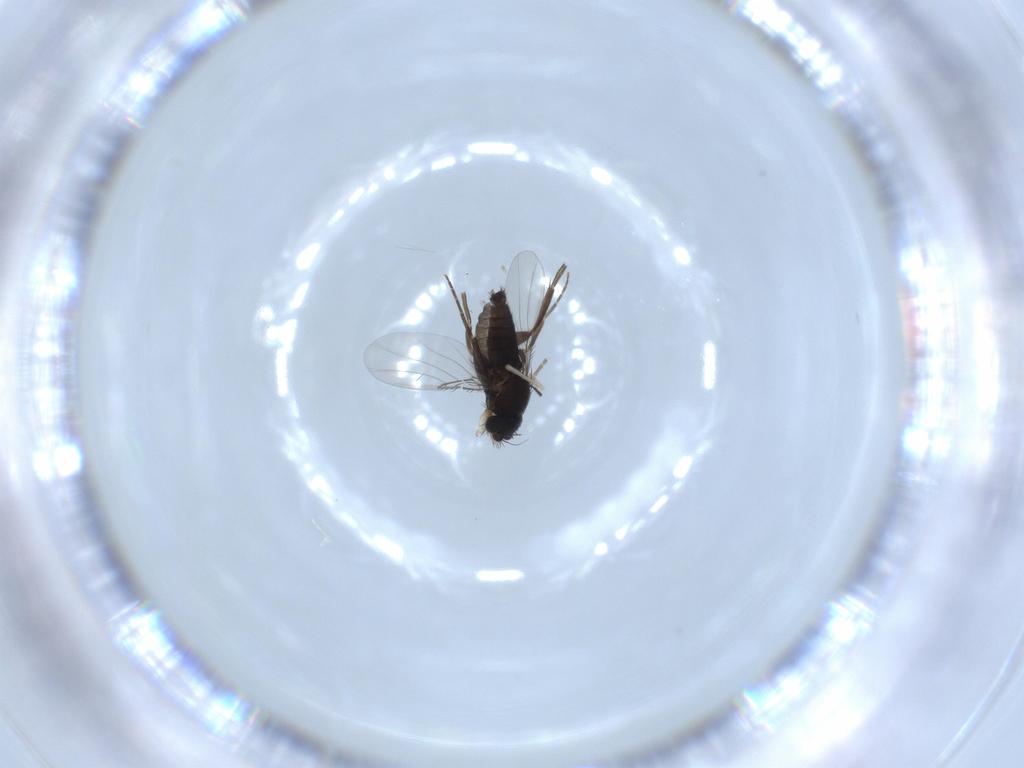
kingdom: Animalia
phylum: Arthropoda
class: Insecta
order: Diptera
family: Phoridae
